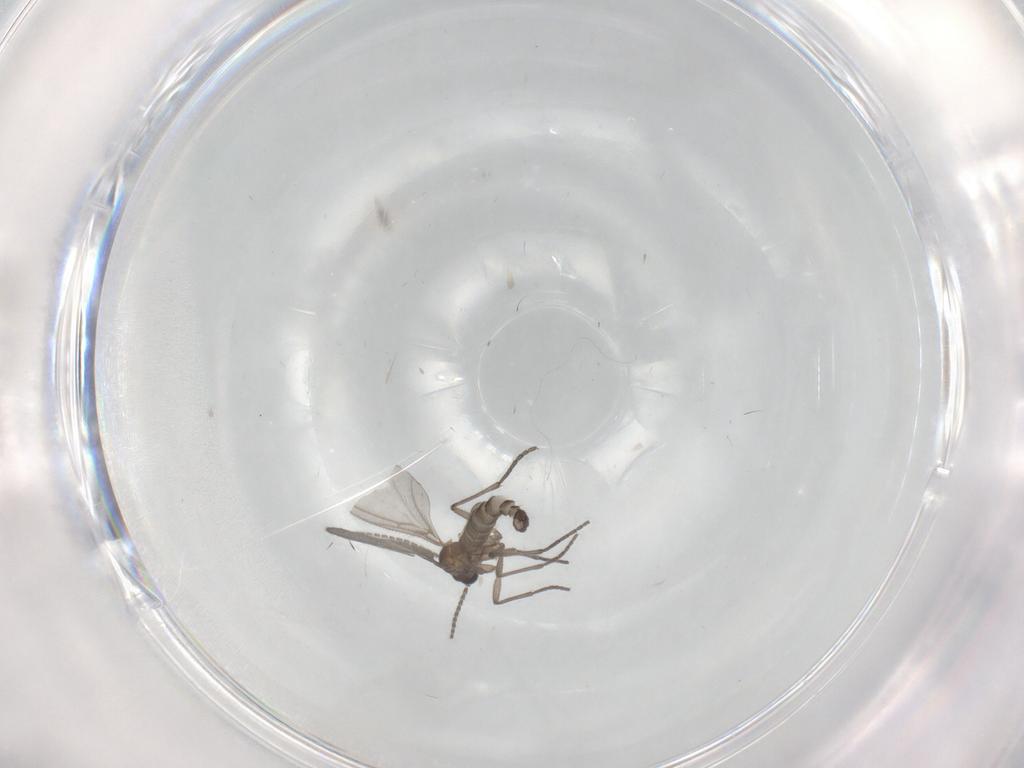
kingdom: Animalia
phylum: Arthropoda
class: Insecta
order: Diptera
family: Sciaridae
